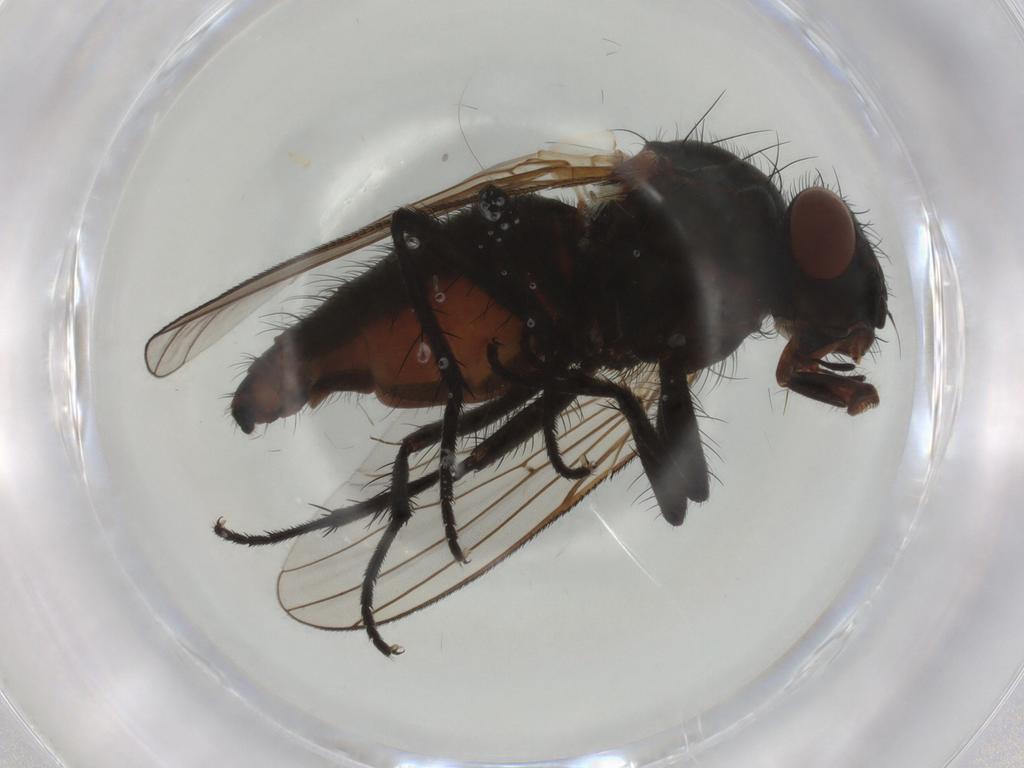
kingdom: Animalia
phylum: Arthropoda
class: Insecta
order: Diptera
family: Anthomyiidae
